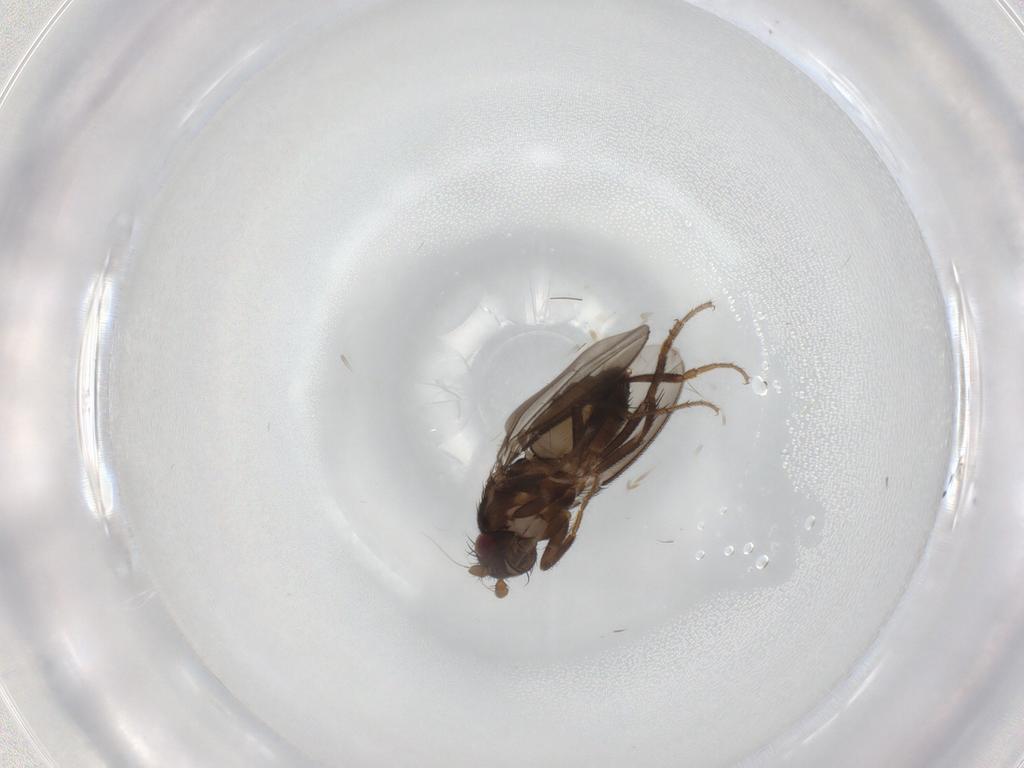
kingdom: Animalia
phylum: Arthropoda
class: Insecta
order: Diptera
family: Sphaeroceridae
